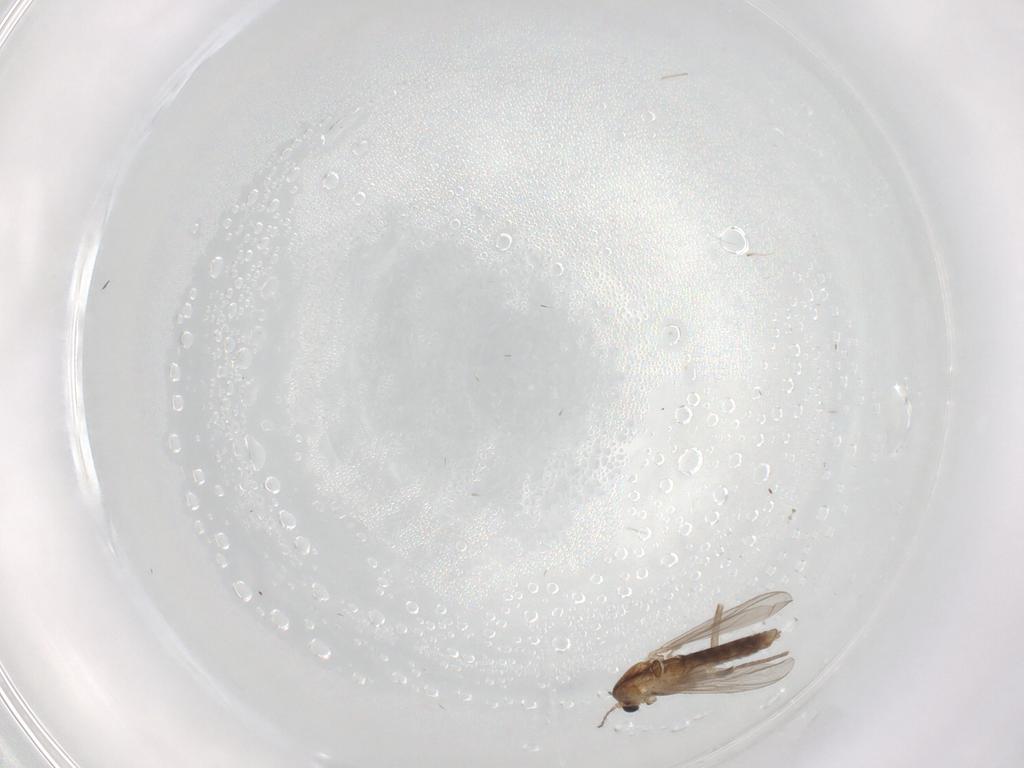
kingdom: Animalia
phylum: Arthropoda
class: Insecta
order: Diptera
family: Chironomidae
